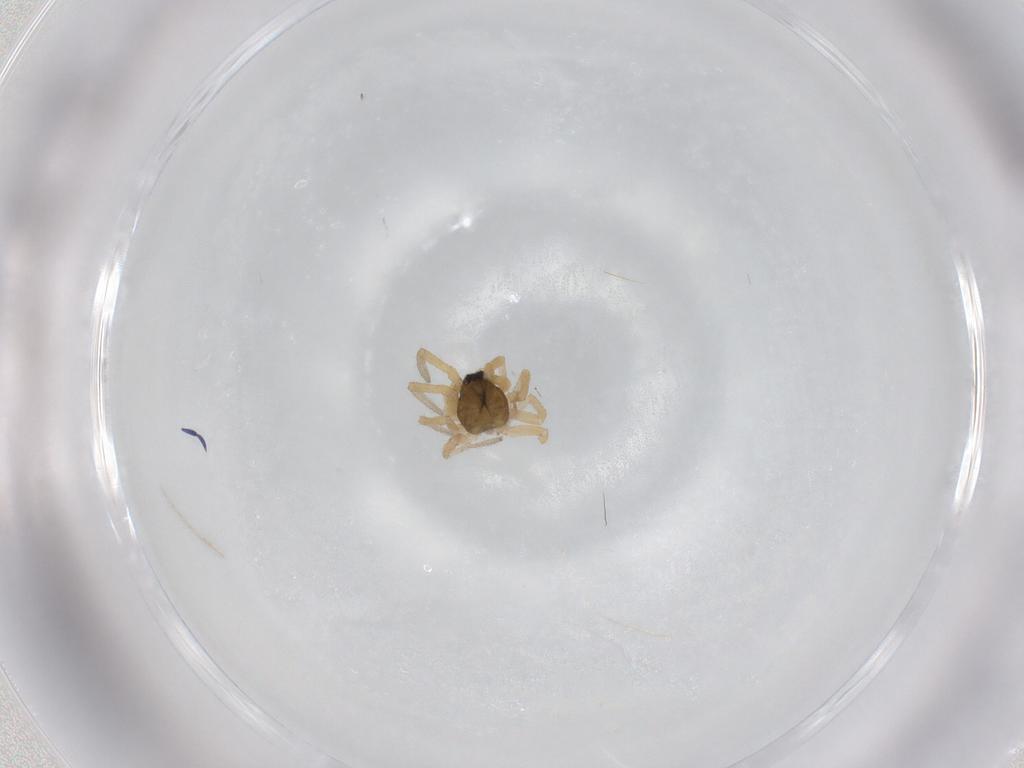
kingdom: Animalia
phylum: Arthropoda
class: Arachnida
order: Araneae
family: Linyphiidae
